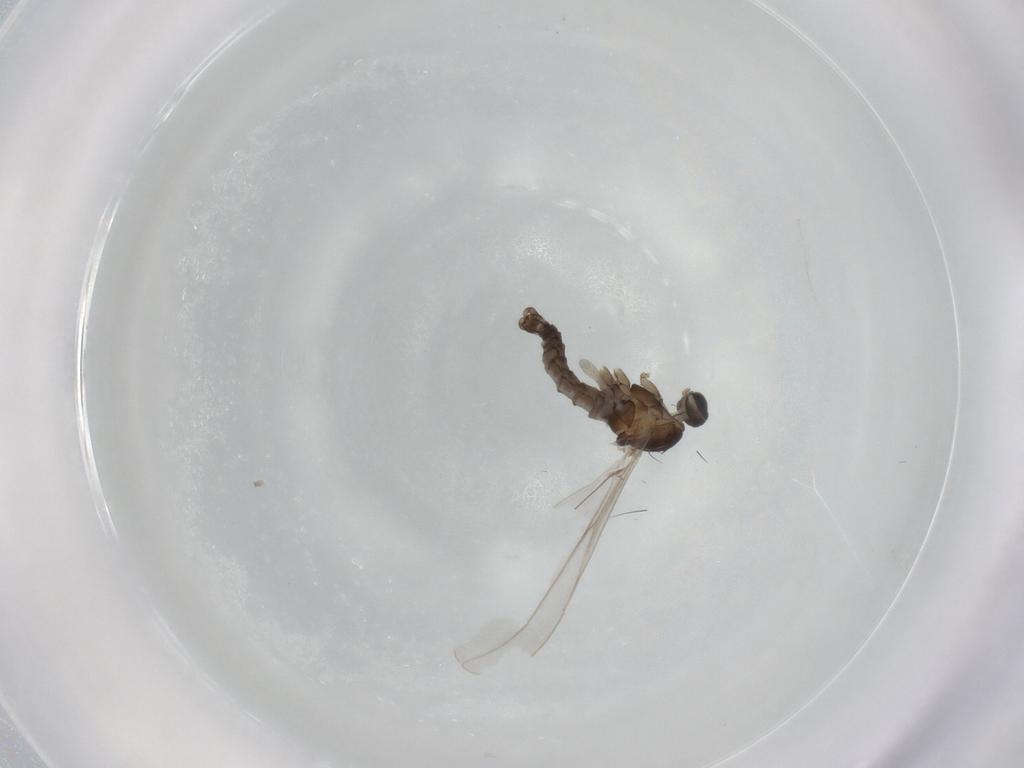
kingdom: Animalia
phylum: Arthropoda
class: Insecta
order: Diptera
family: Cecidomyiidae
